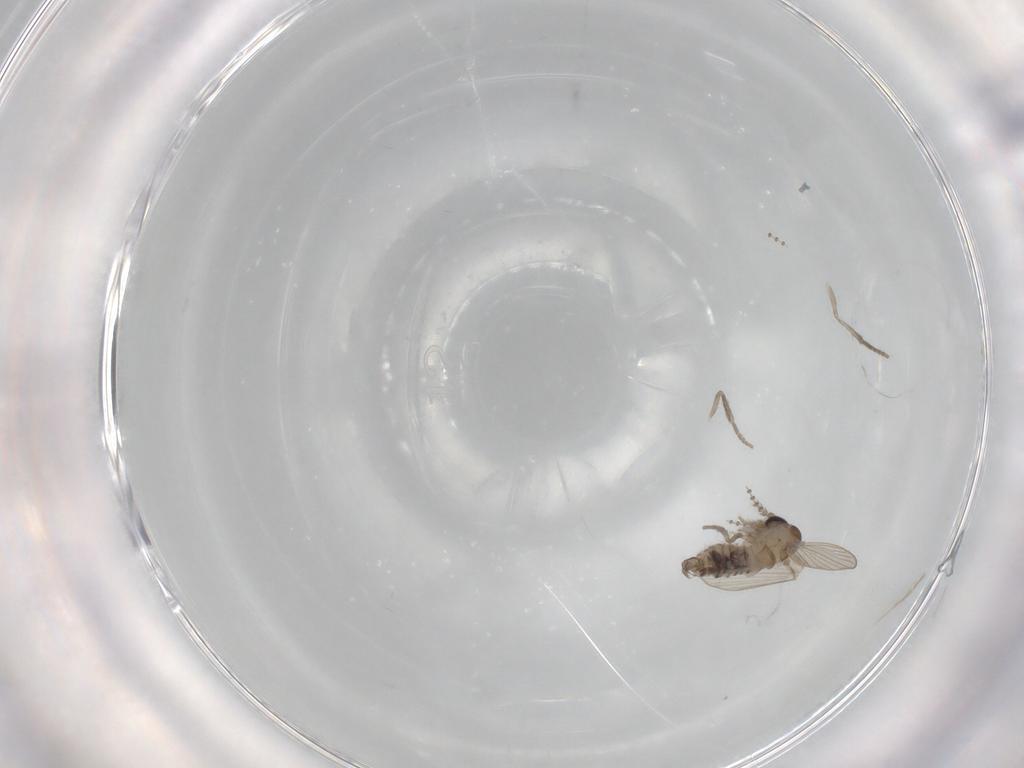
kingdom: Animalia
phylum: Arthropoda
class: Insecta
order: Diptera
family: Psychodidae
